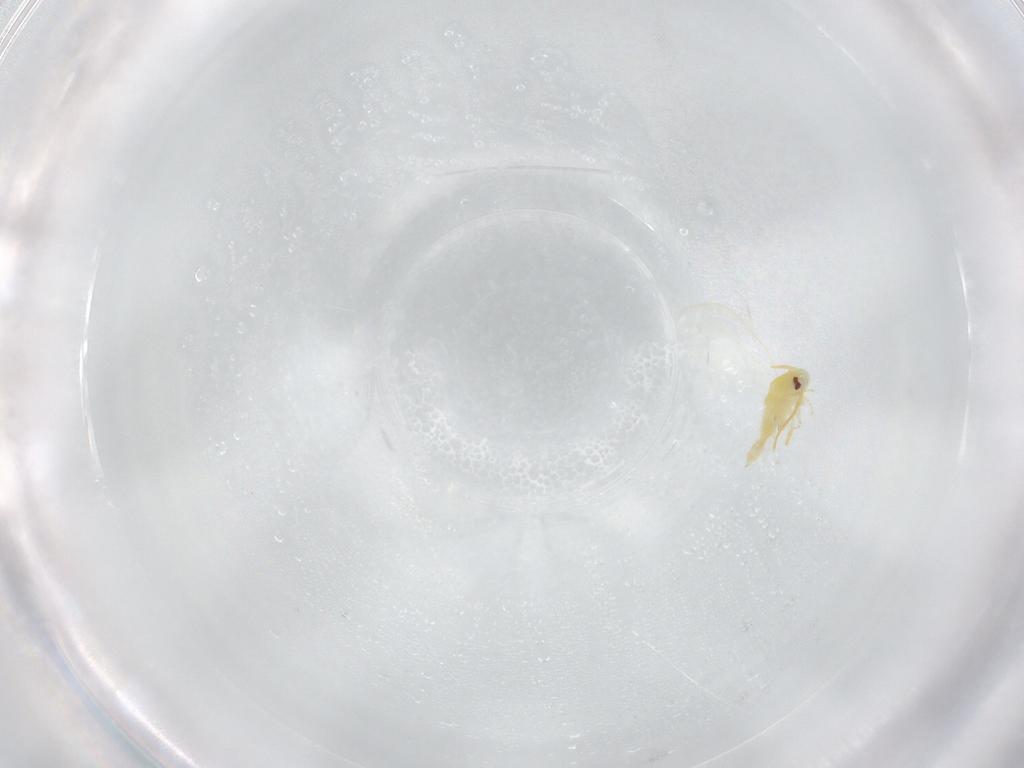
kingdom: Animalia
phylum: Arthropoda
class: Insecta
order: Hemiptera
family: Aleyrodidae
